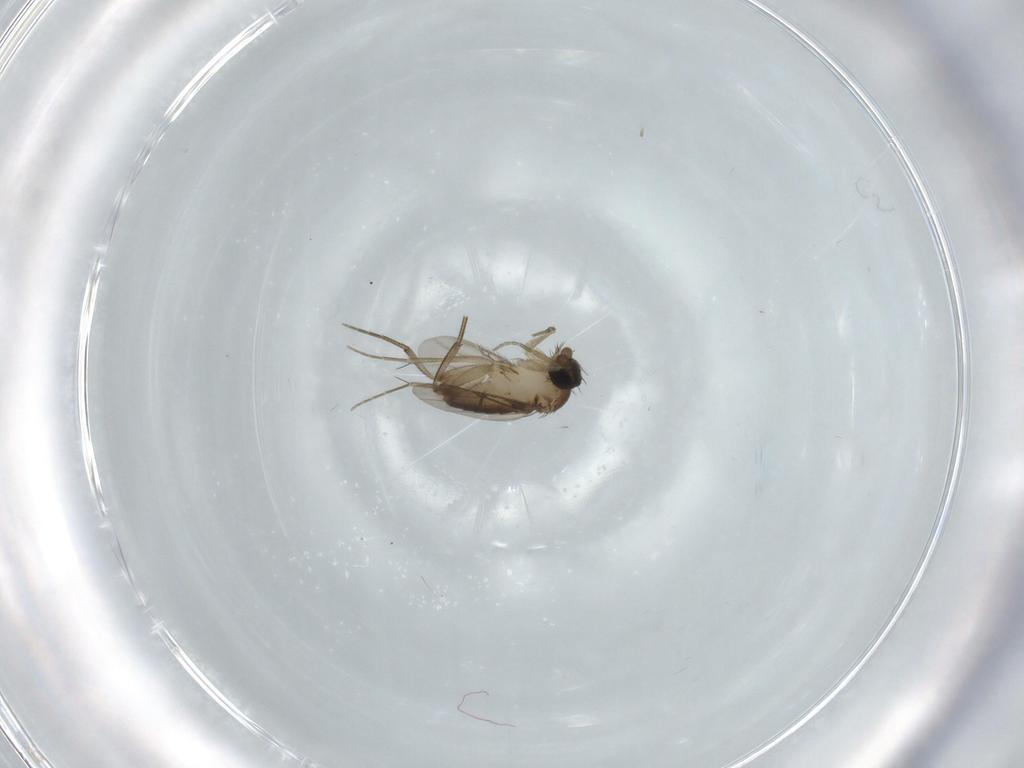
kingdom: Animalia
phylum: Arthropoda
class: Insecta
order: Diptera
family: Phoridae
